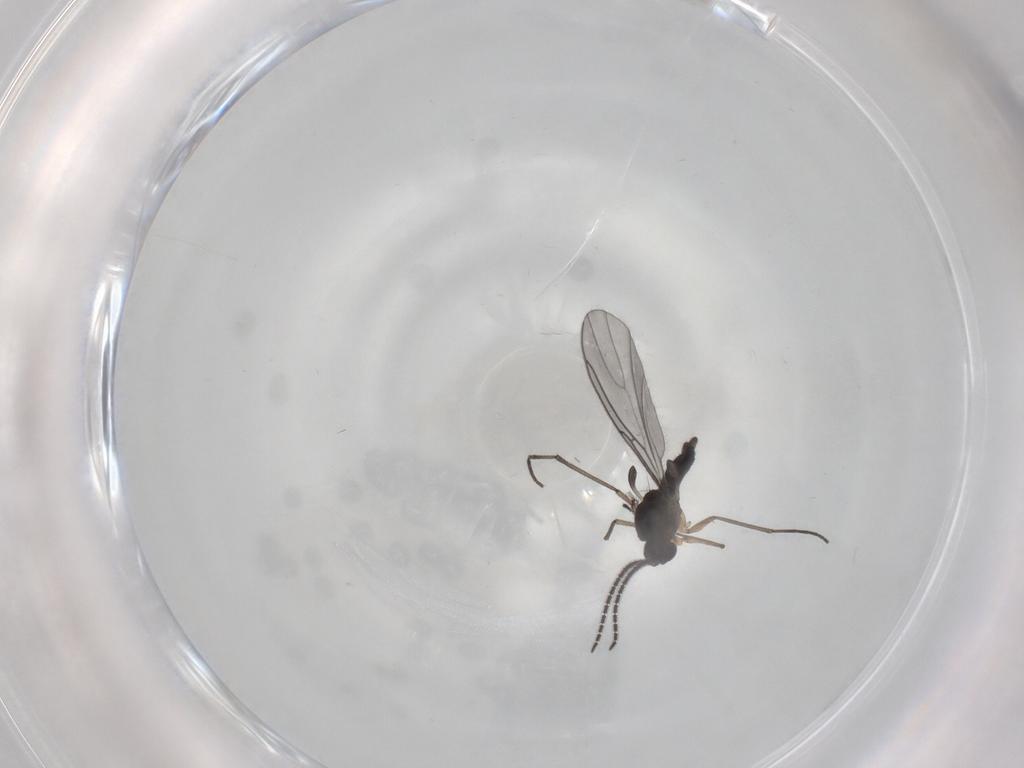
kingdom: Animalia
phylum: Arthropoda
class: Insecta
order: Diptera
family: Sciaridae
